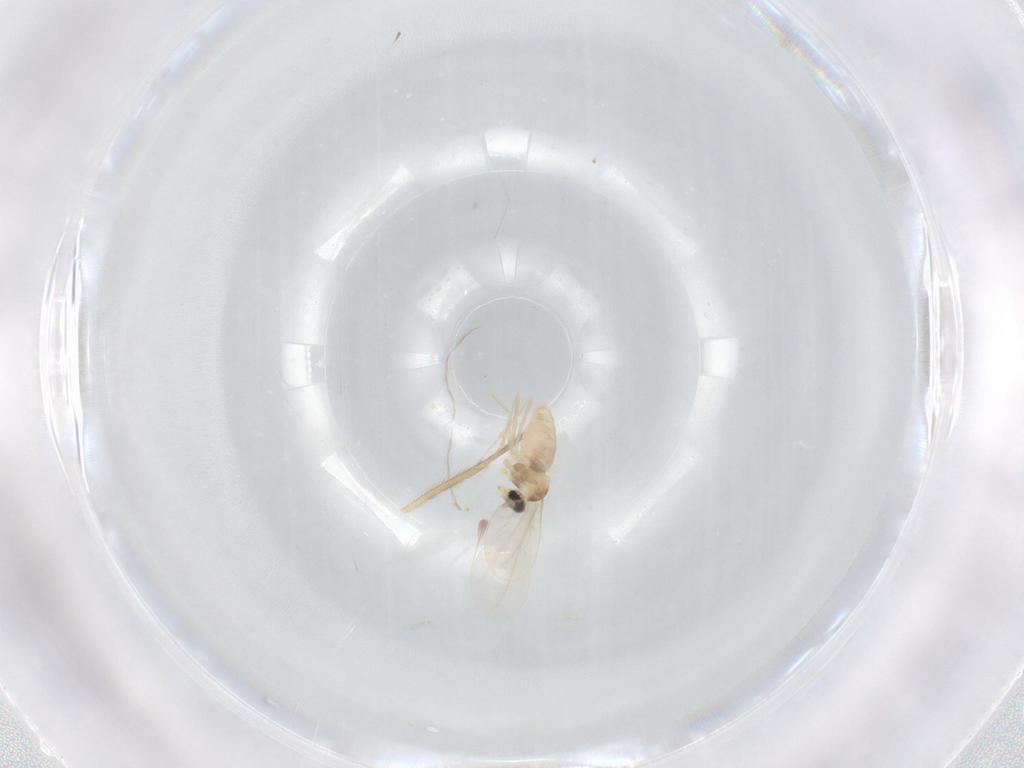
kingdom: Animalia
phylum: Arthropoda
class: Insecta
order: Diptera
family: Cecidomyiidae
